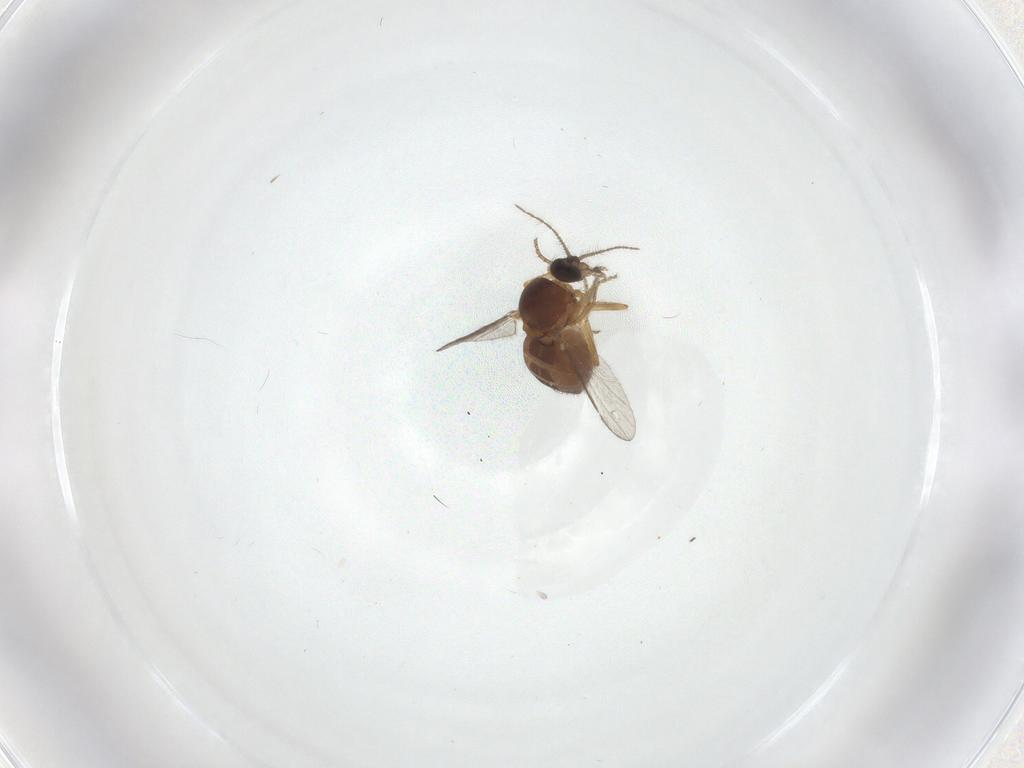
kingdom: Animalia
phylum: Arthropoda
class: Insecta
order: Diptera
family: Ceratopogonidae
